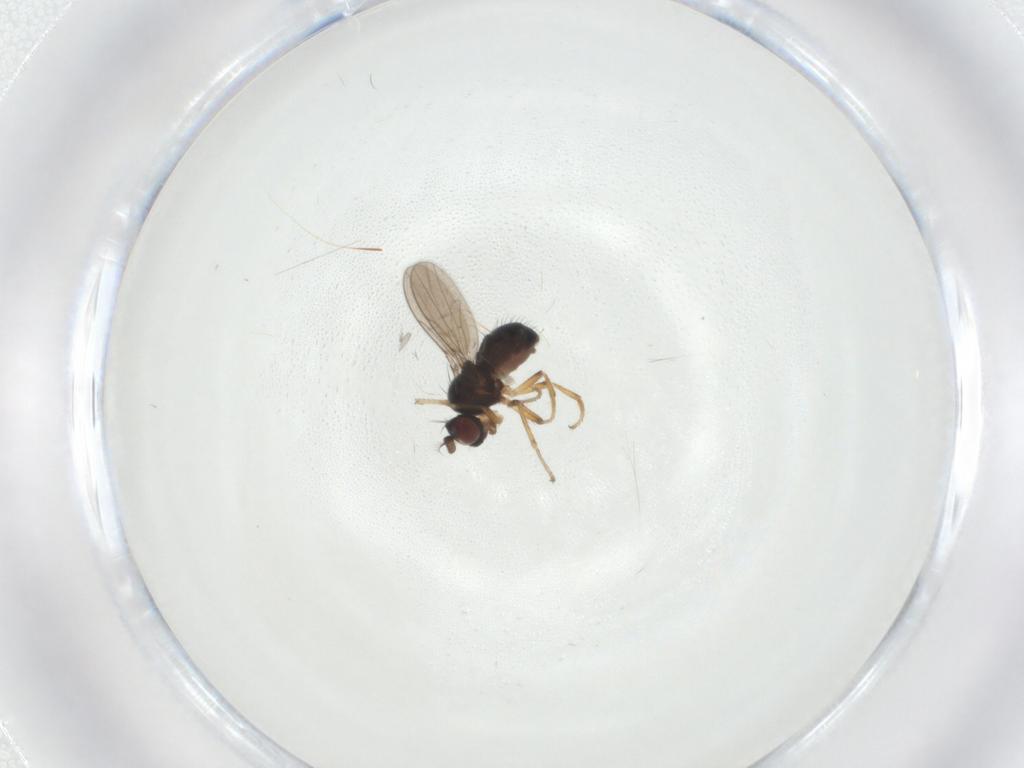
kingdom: Animalia
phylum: Arthropoda
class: Insecta
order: Diptera
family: Ephydridae
